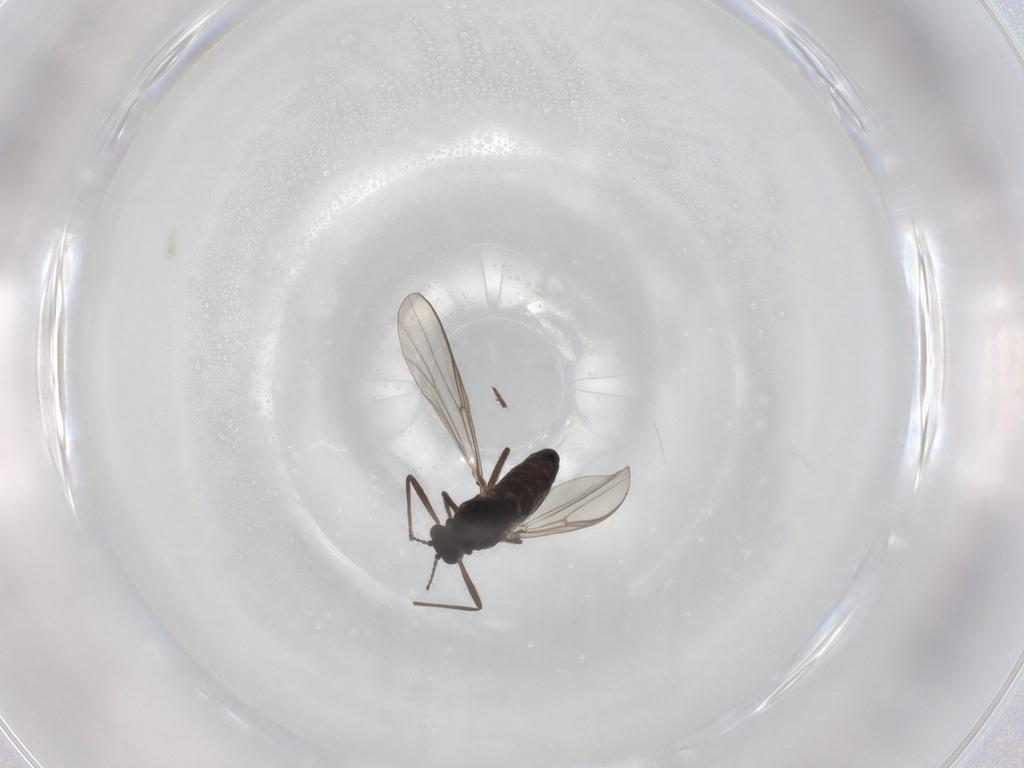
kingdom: Animalia
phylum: Arthropoda
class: Insecta
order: Diptera
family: Chironomidae
